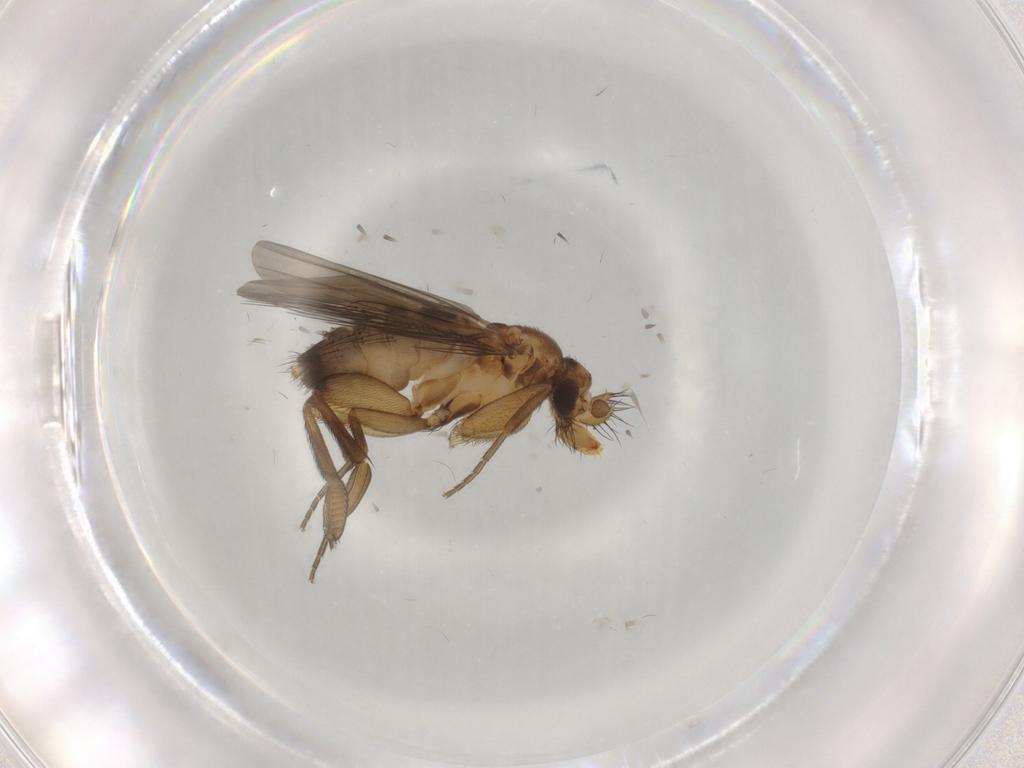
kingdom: Animalia
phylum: Arthropoda
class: Insecta
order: Diptera
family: Phoridae
